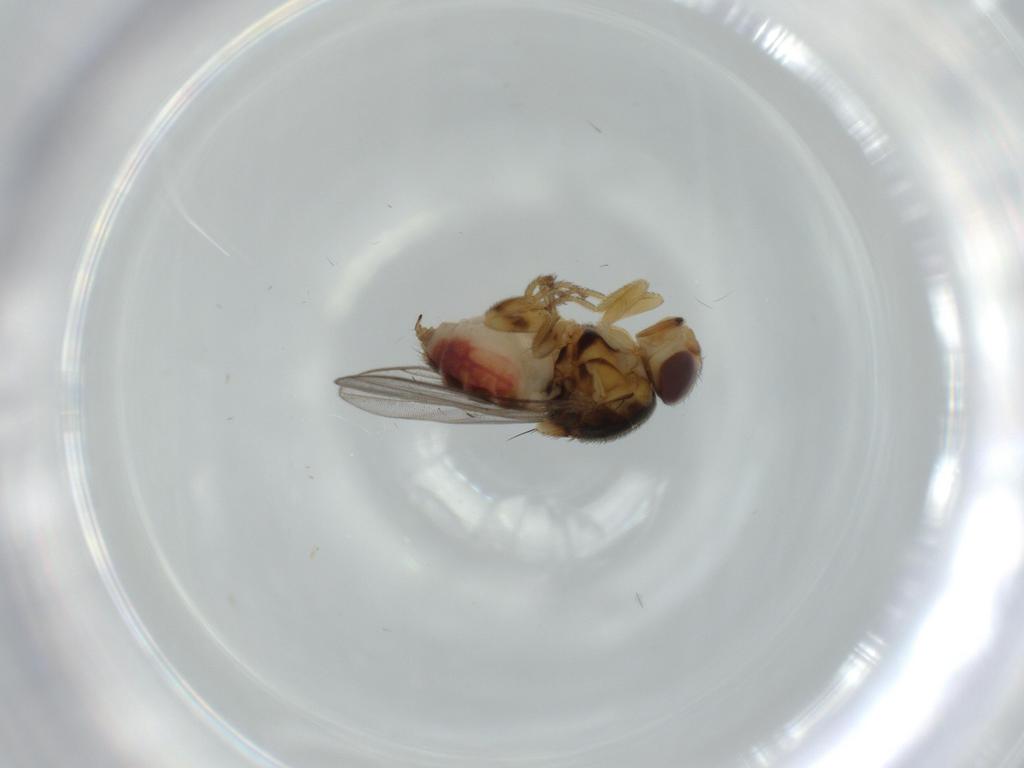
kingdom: Animalia
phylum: Arthropoda
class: Insecta
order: Diptera
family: Chloropidae
